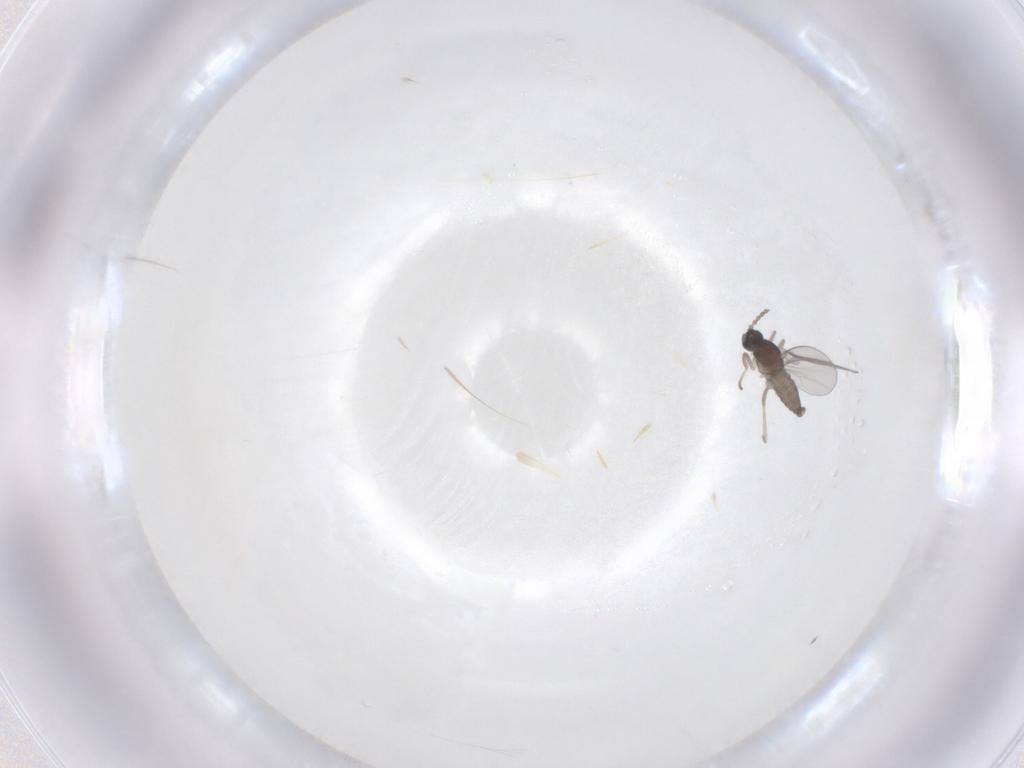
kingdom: Animalia
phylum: Arthropoda
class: Insecta
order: Diptera
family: Cecidomyiidae
